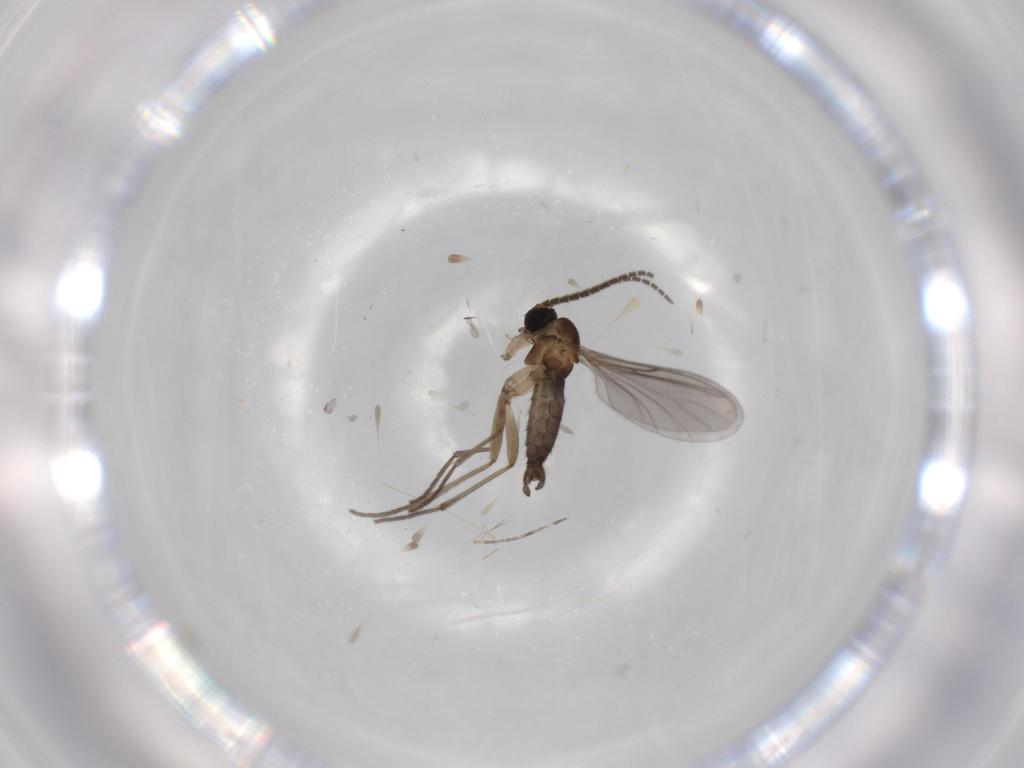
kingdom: Animalia
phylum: Arthropoda
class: Insecta
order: Diptera
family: Sciaridae
